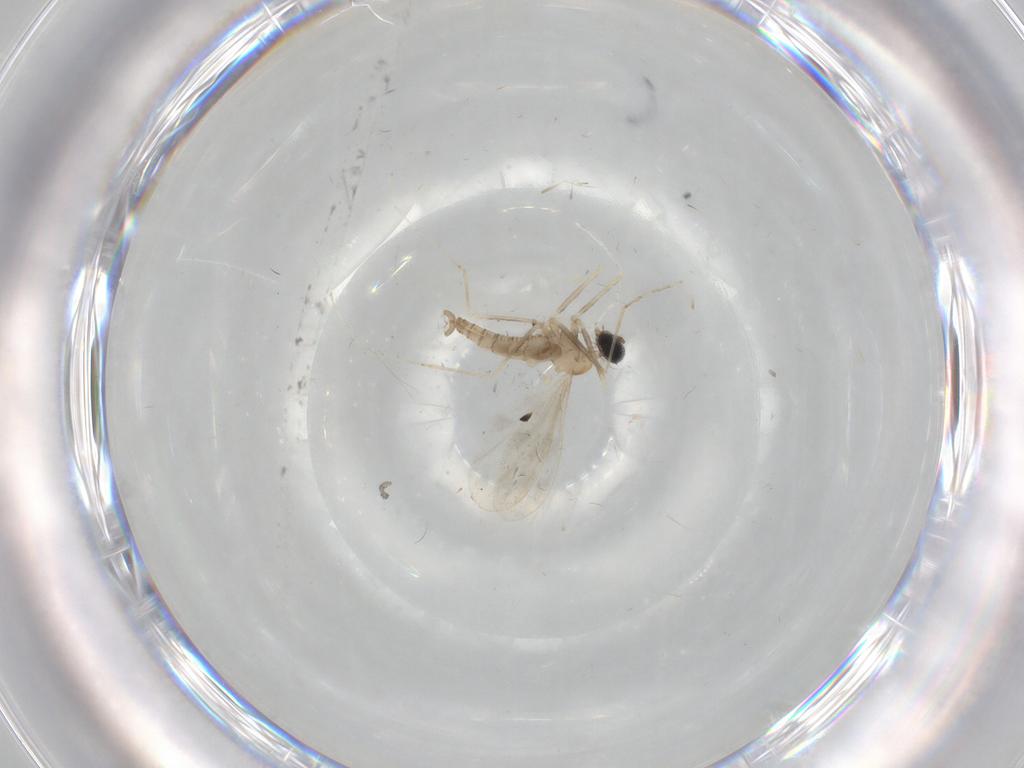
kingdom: Animalia
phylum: Arthropoda
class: Insecta
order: Diptera
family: Cecidomyiidae
